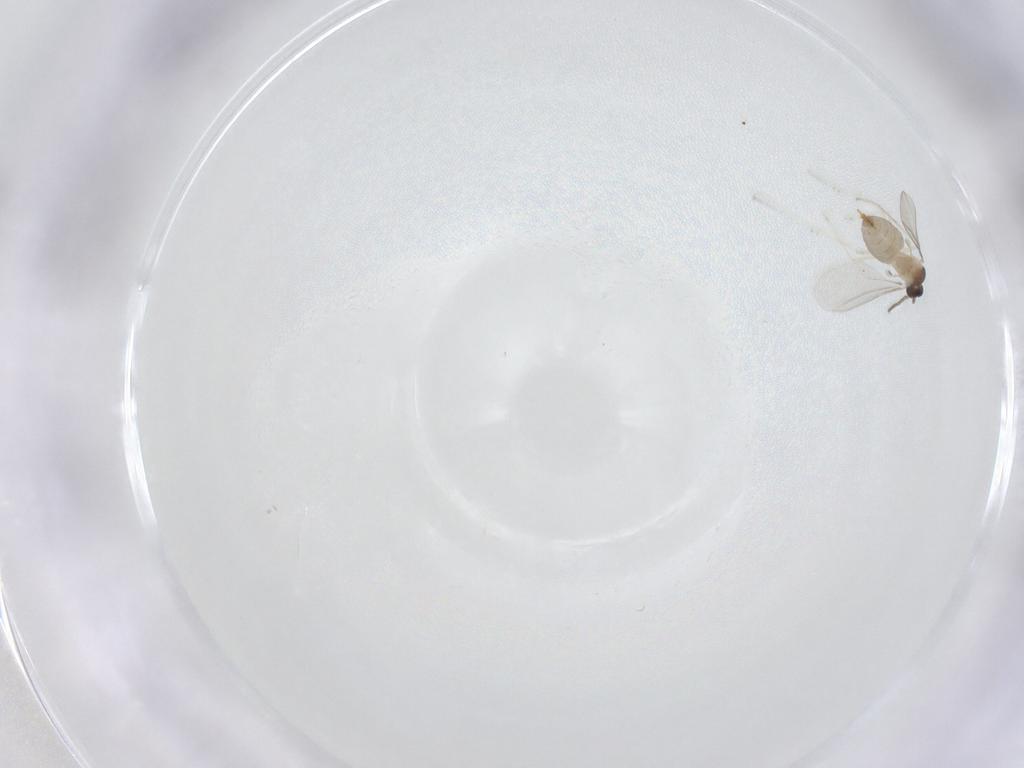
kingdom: Animalia
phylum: Arthropoda
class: Insecta
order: Diptera
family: Cecidomyiidae
